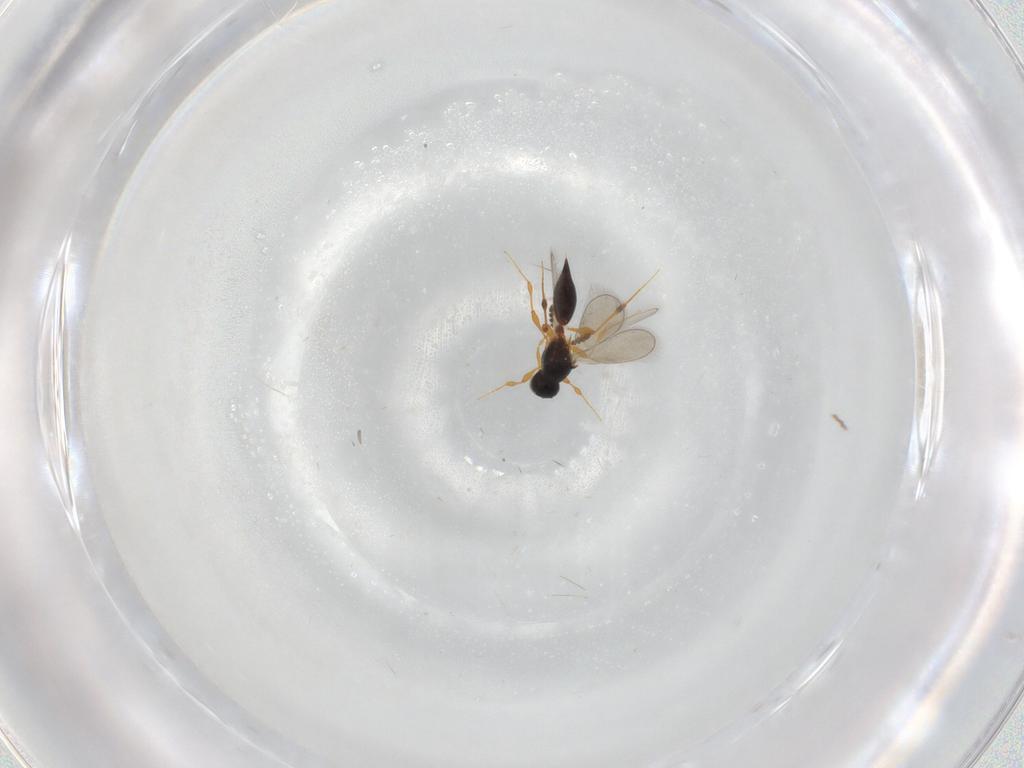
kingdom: Animalia
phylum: Arthropoda
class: Insecta
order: Hymenoptera
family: Platygastridae
